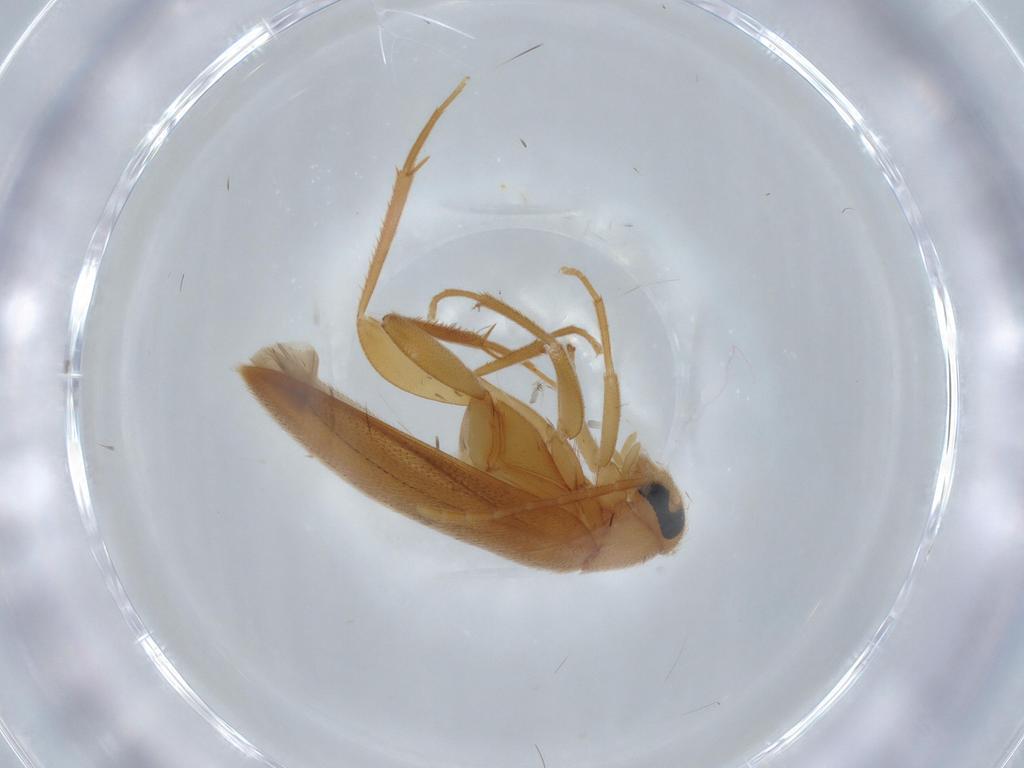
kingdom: Animalia
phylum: Arthropoda
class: Insecta
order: Coleoptera
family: Scraptiidae
